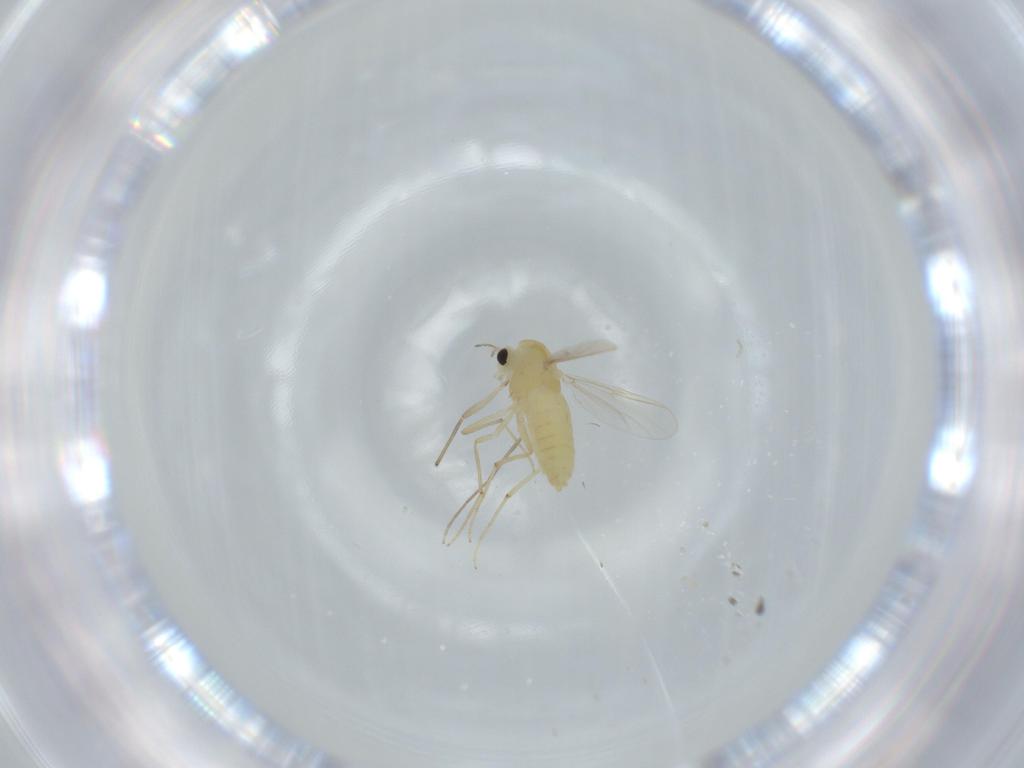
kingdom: Animalia
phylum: Arthropoda
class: Insecta
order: Diptera
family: Chironomidae
